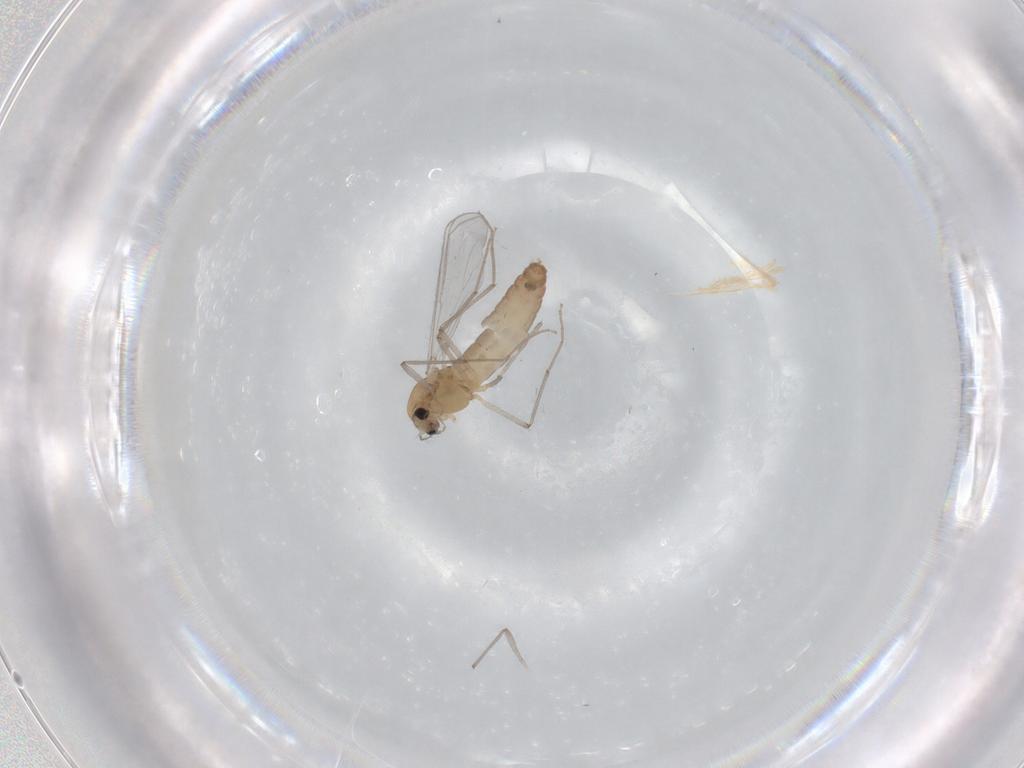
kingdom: Animalia
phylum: Arthropoda
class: Insecta
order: Diptera
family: Chironomidae
